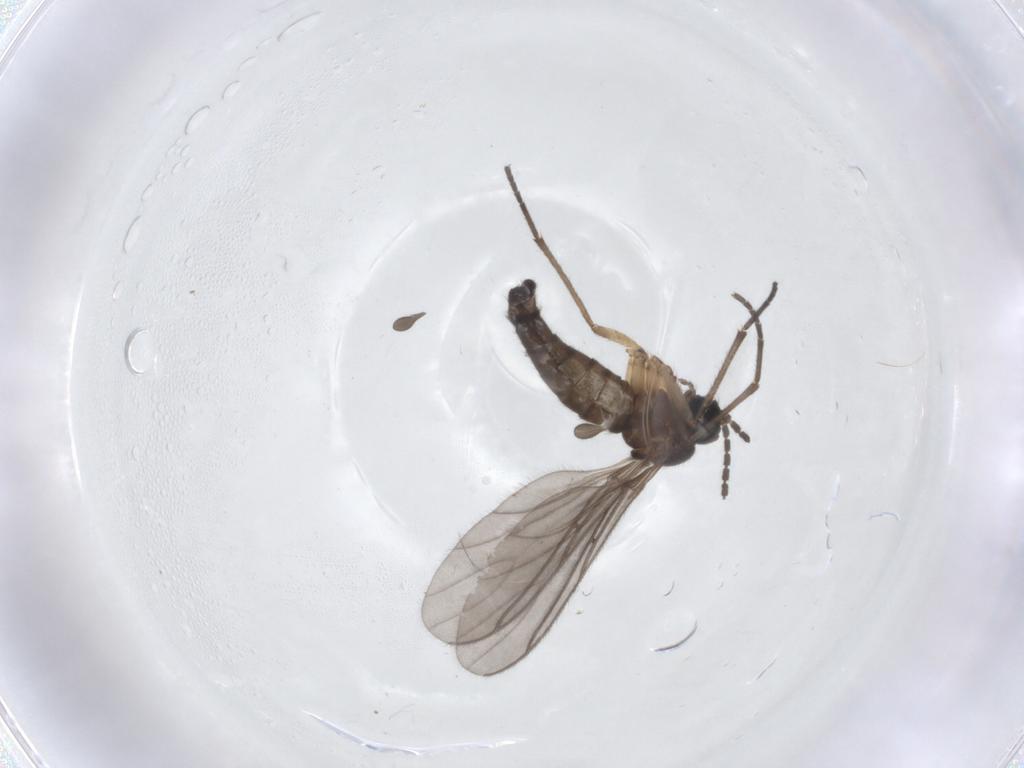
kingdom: Animalia
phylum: Arthropoda
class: Insecta
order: Diptera
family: Sciaridae
